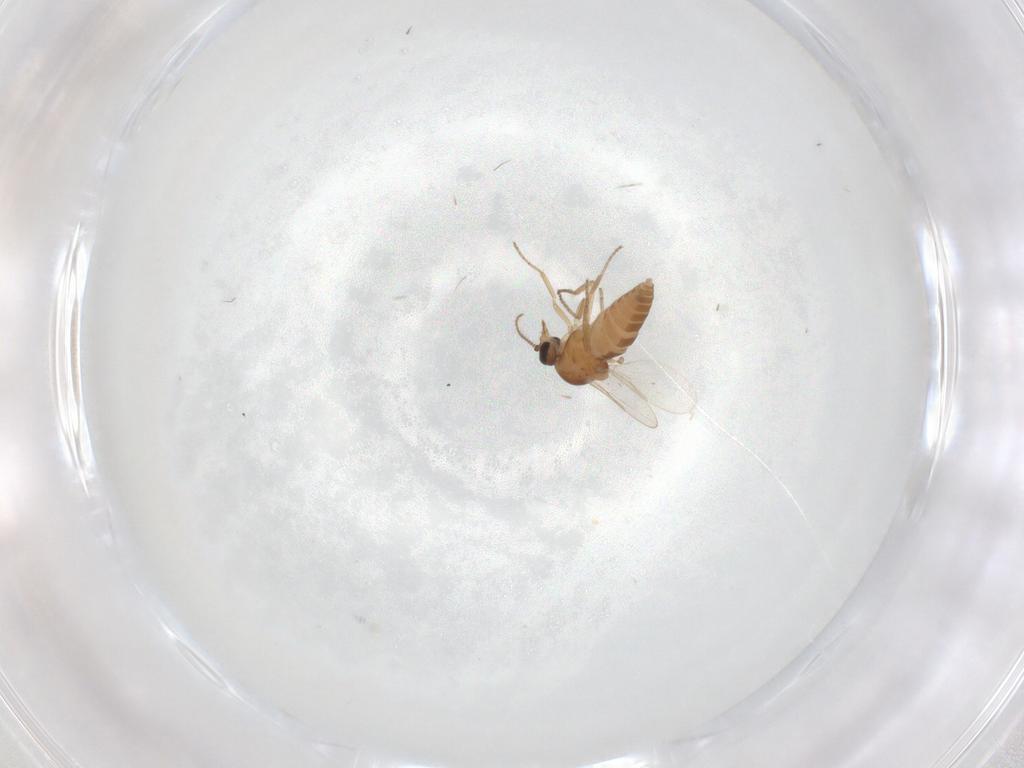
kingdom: Animalia
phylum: Arthropoda
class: Insecta
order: Diptera
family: Ceratopogonidae
